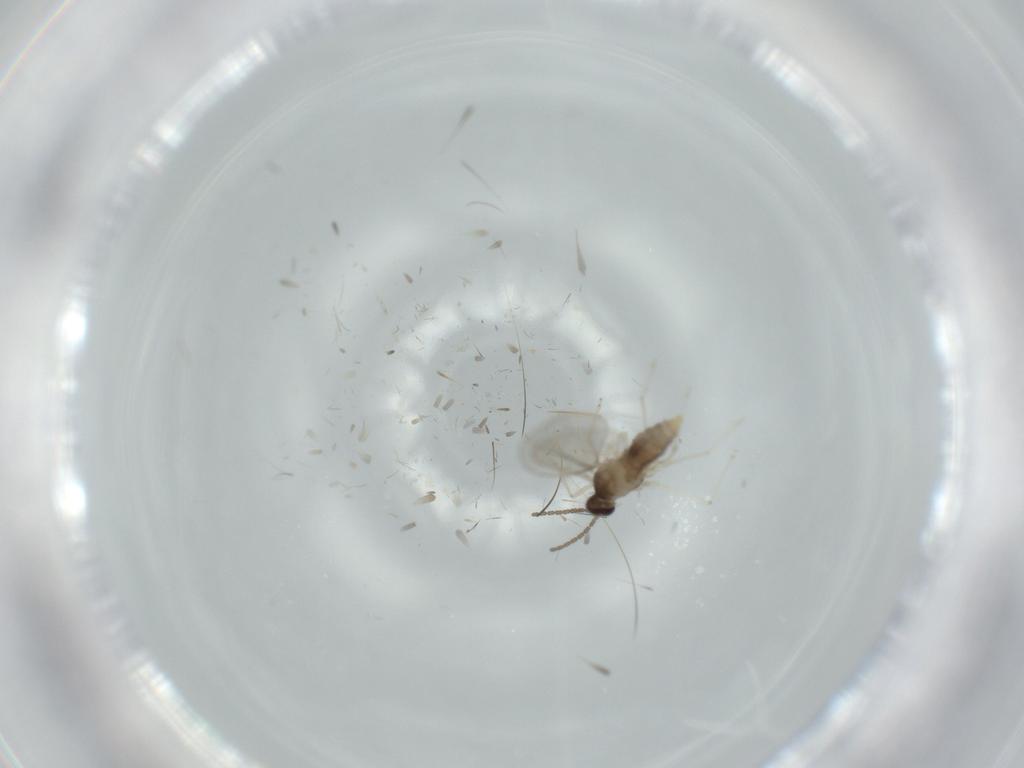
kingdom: Animalia
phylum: Arthropoda
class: Insecta
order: Diptera
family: Cecidomyiidae
